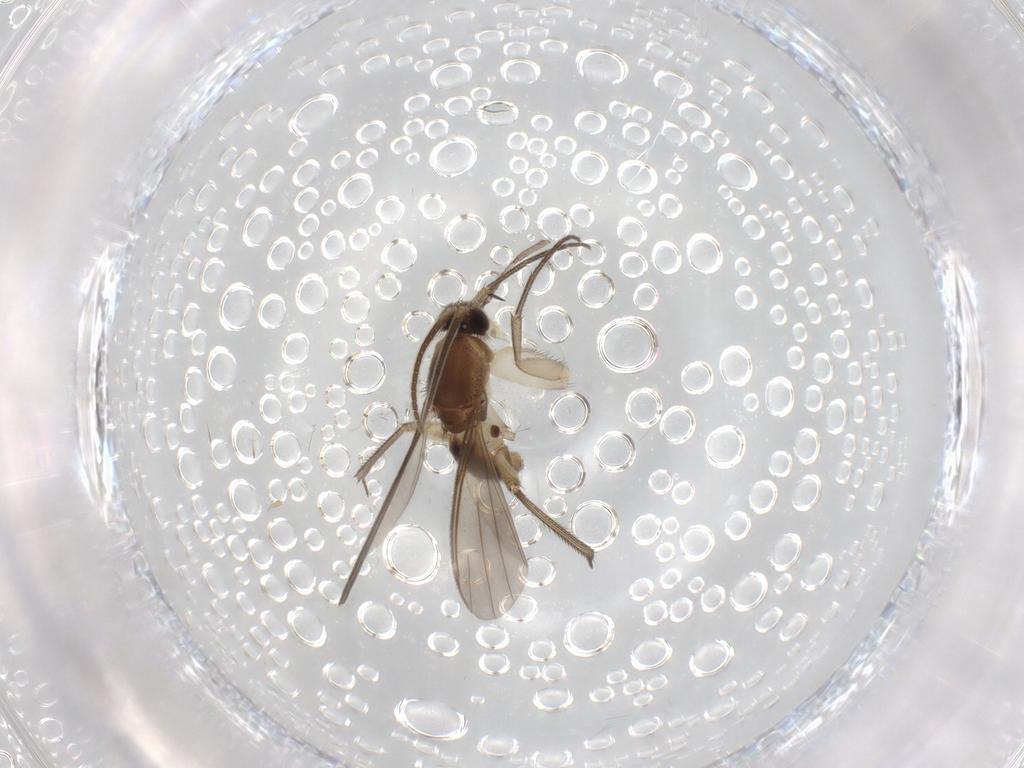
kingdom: Animalia
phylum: Arthropoda
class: Insecta
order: Diptera
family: Mycetophilidae
